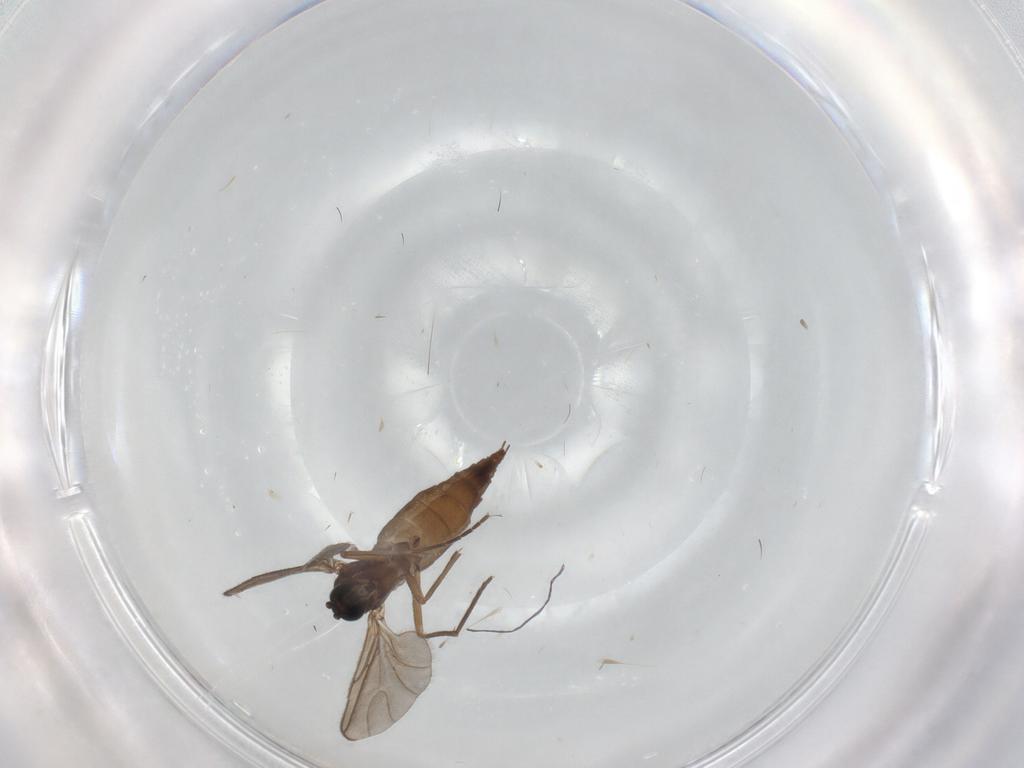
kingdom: Animalia
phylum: Arthropoda
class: Insecta
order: Diptera
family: Sciaridae
